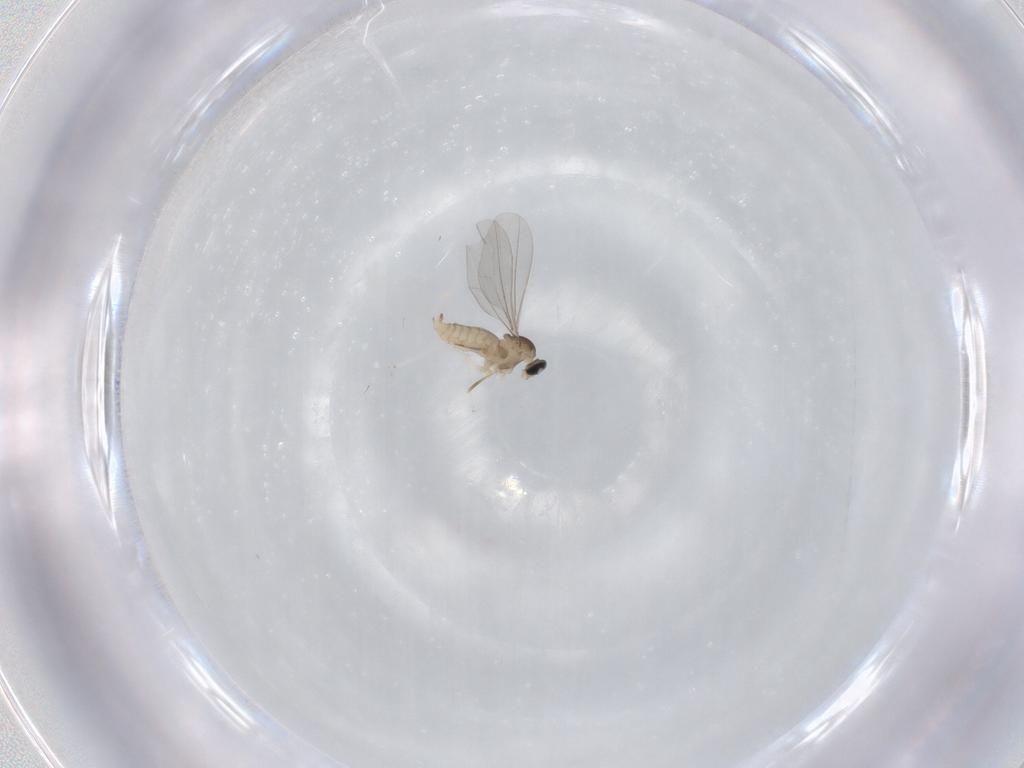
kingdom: Animalia
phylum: Arthropoda
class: Insecta
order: Diptera
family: Cecidomyiidae
